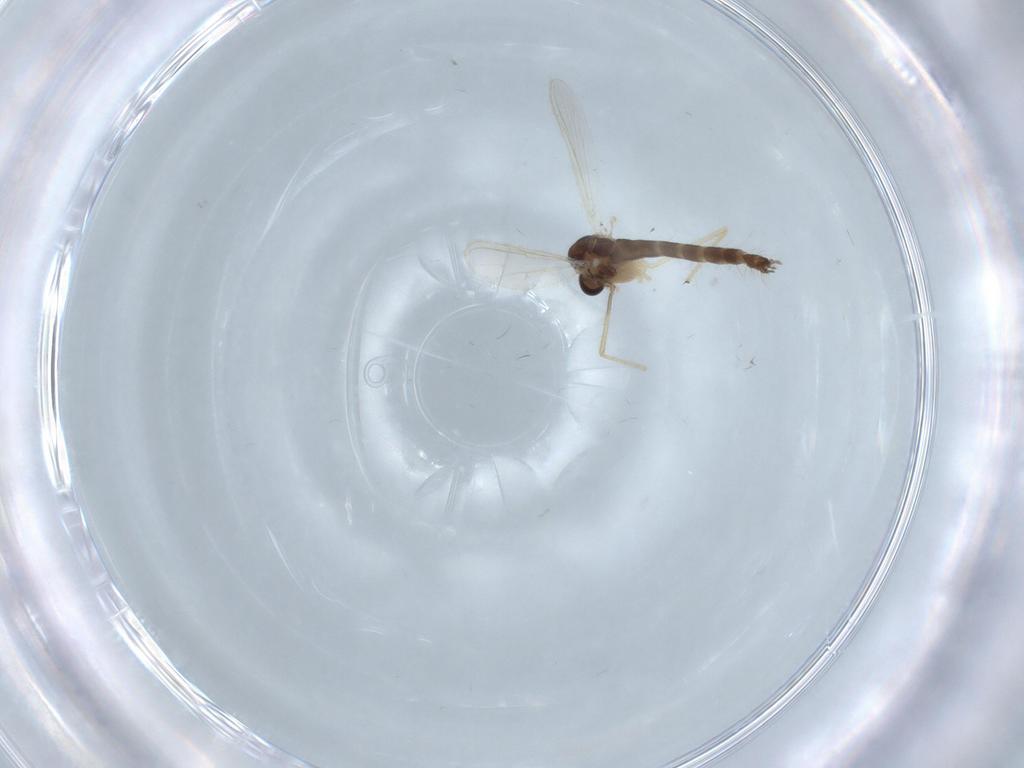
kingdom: Animalia
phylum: Arthropoda
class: Insecta
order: Diptera
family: Chironomidae
